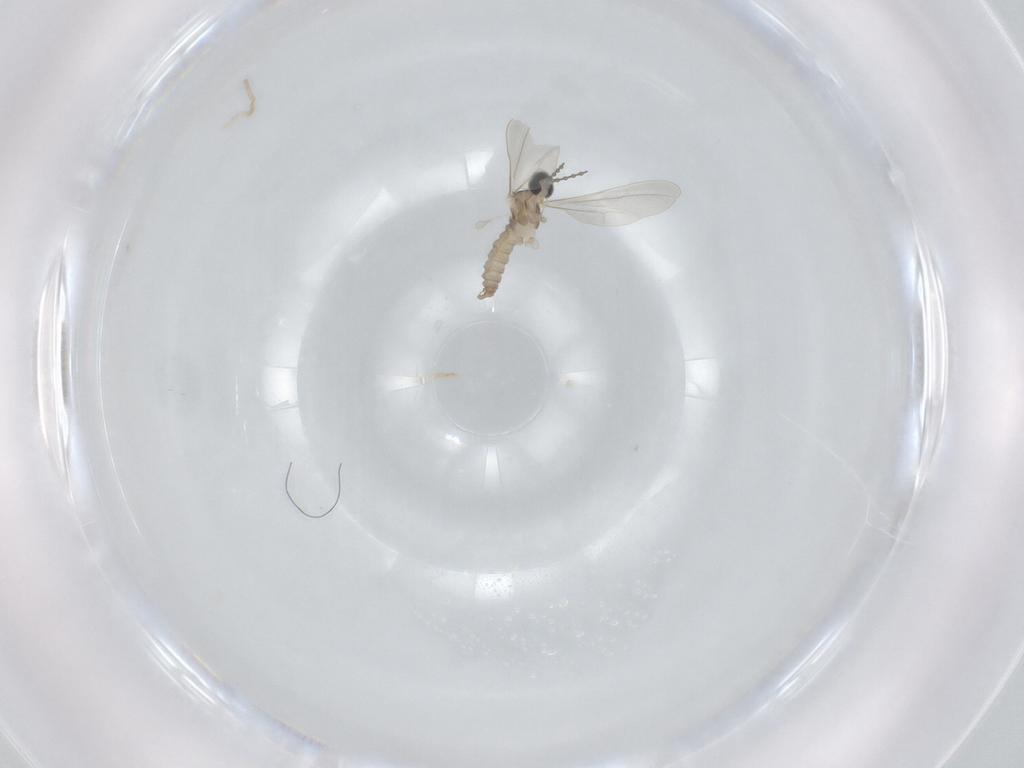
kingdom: Animalia
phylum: Arthropoda
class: Insecta
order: Diptera
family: Cecidomyiidae
